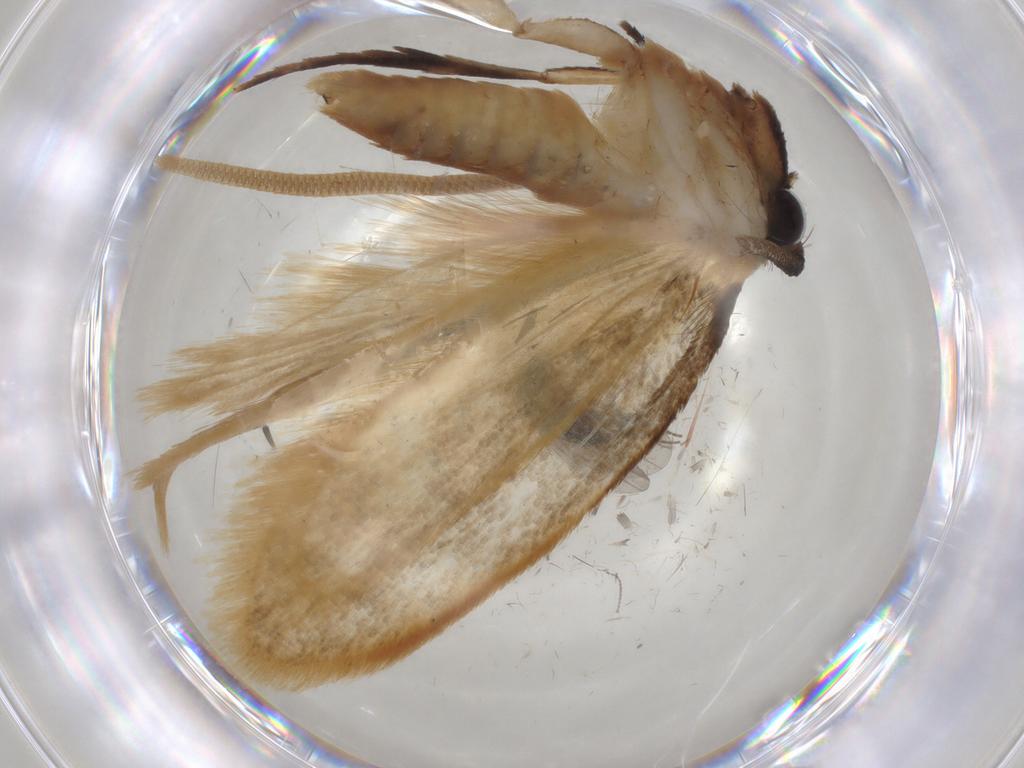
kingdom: Animalia
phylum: Arthropoda
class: Insecta
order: Lepidoptera
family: Tineidae
